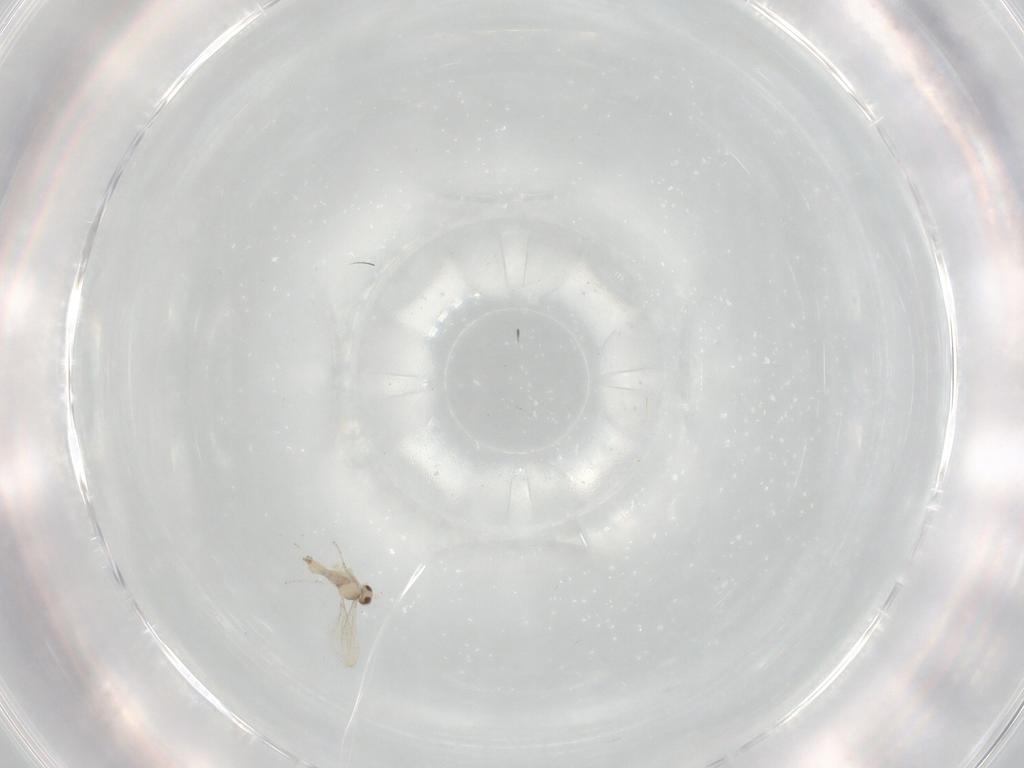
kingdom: Animalia
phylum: Arthropoda
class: Insecta
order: Diptera
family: Cecidomyiidae
